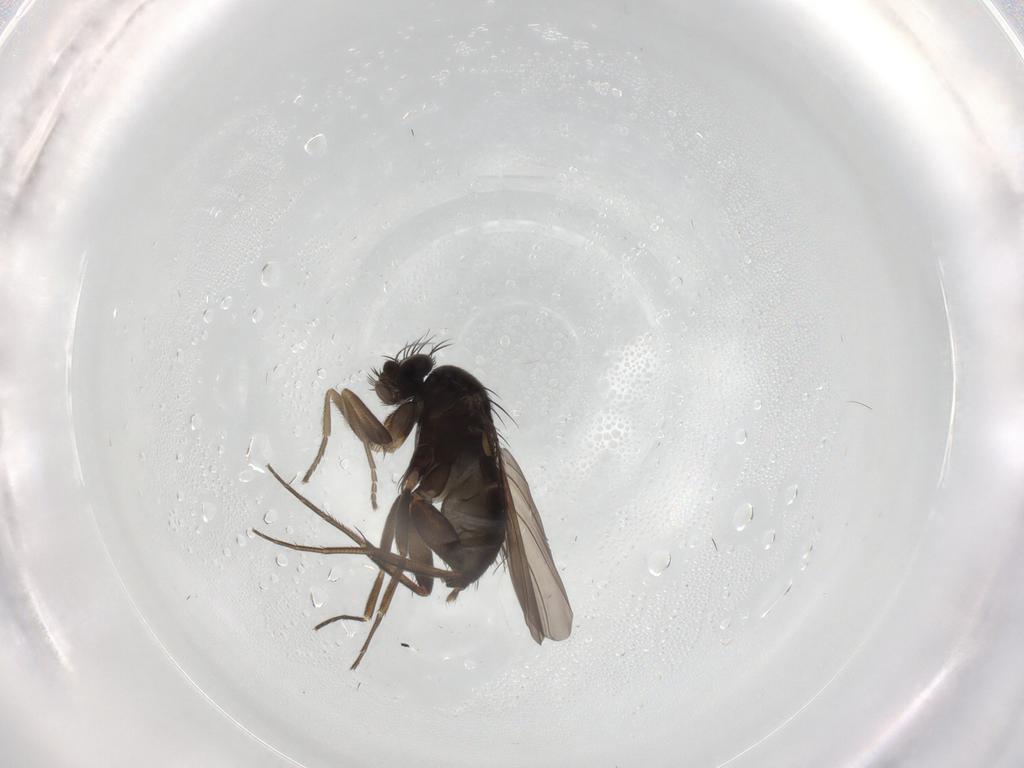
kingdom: Animalia
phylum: Arthropoda
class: Insecta
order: Diptera
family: Phoridae
